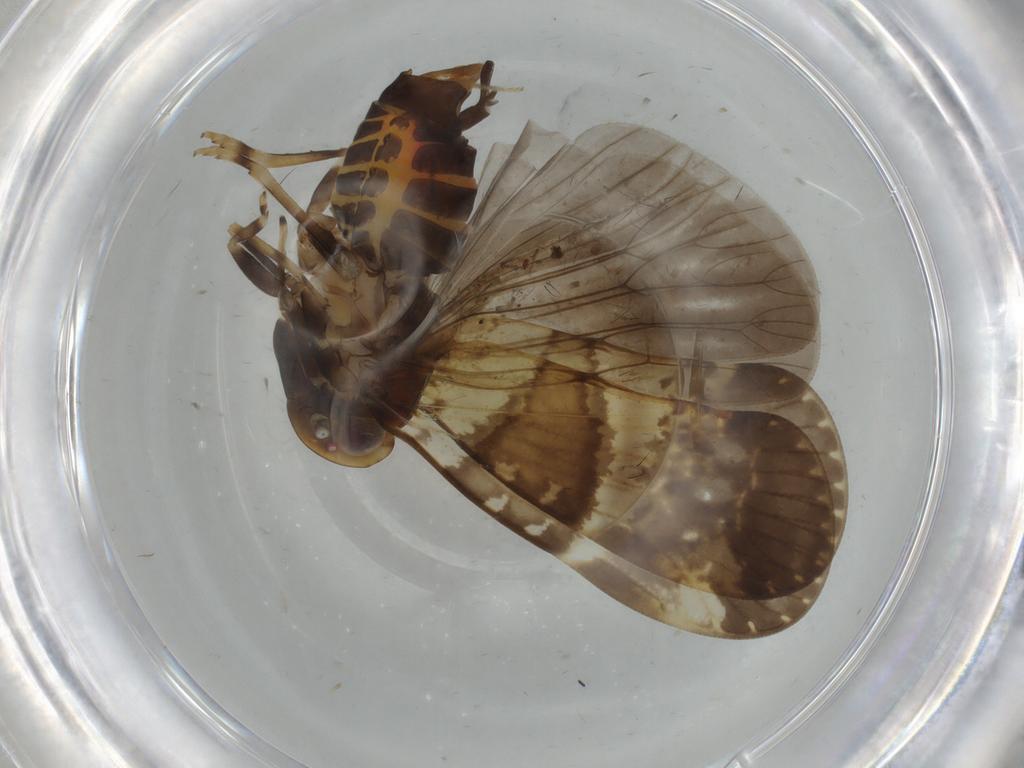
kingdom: Animalia
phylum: Arthropoda
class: Insecta
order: Hemiptera
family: Cixiidae
